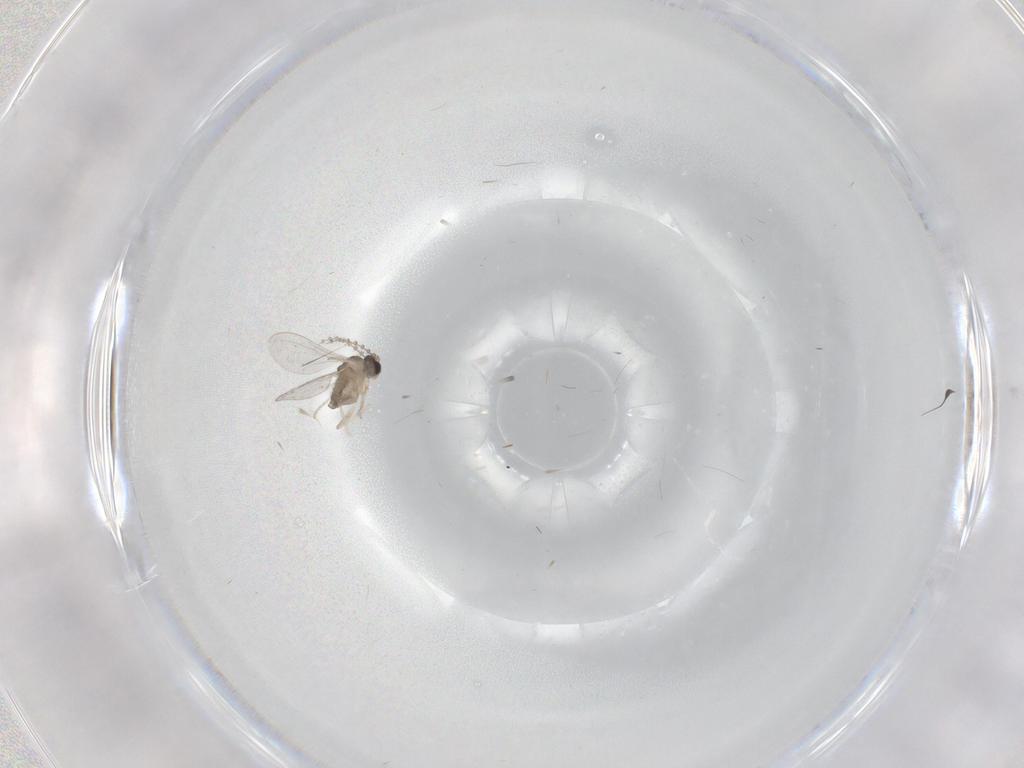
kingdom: Animalia
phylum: Arthropoda
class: Insecta
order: Diptera
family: Cecidomyiidae
